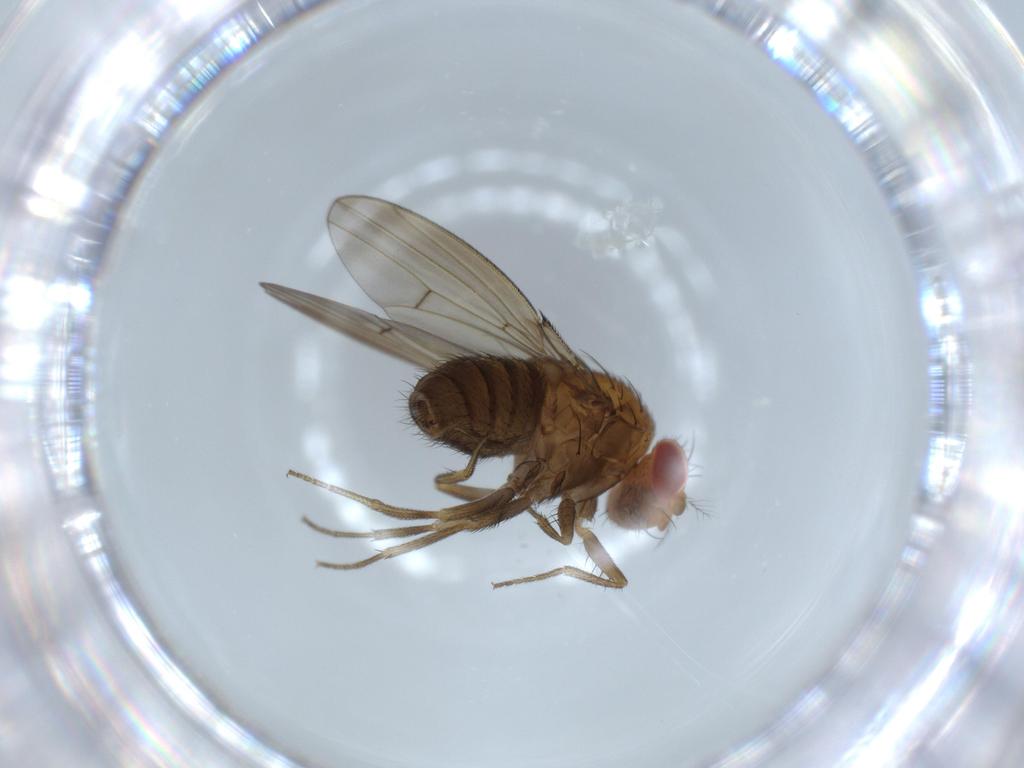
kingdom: Animalia
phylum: Arthropoda
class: Insecta
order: Diptera
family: Drosophilidae
